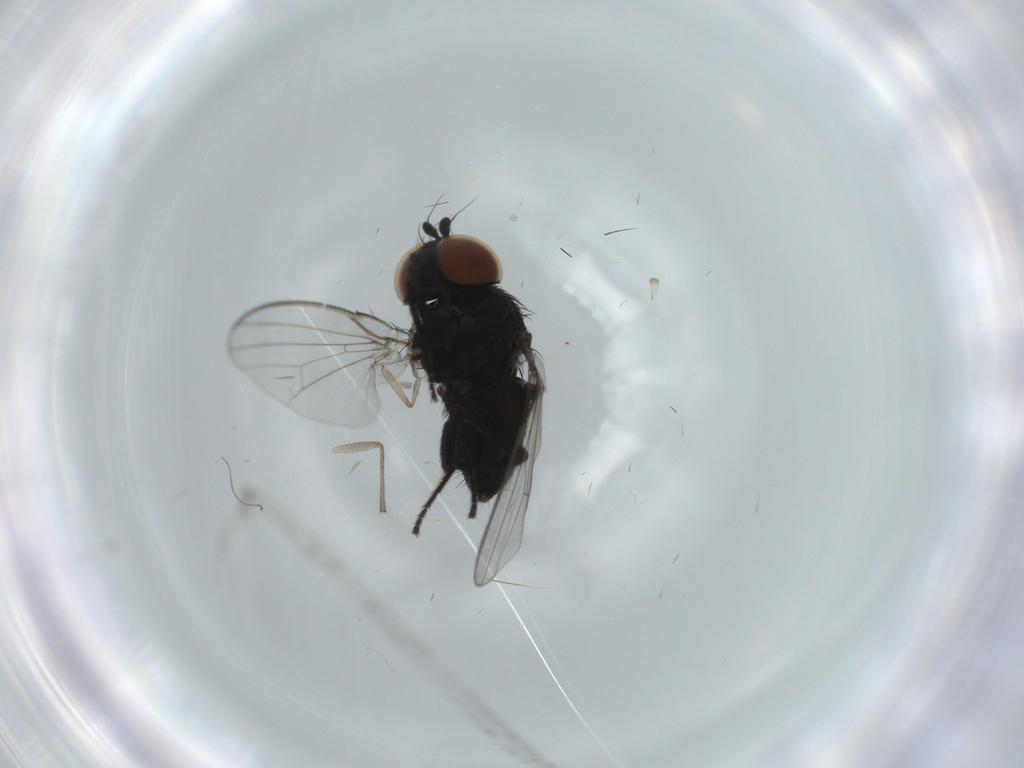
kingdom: Animalia
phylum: Arthropoda
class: Insecta
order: Diptera
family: Milichiidae
